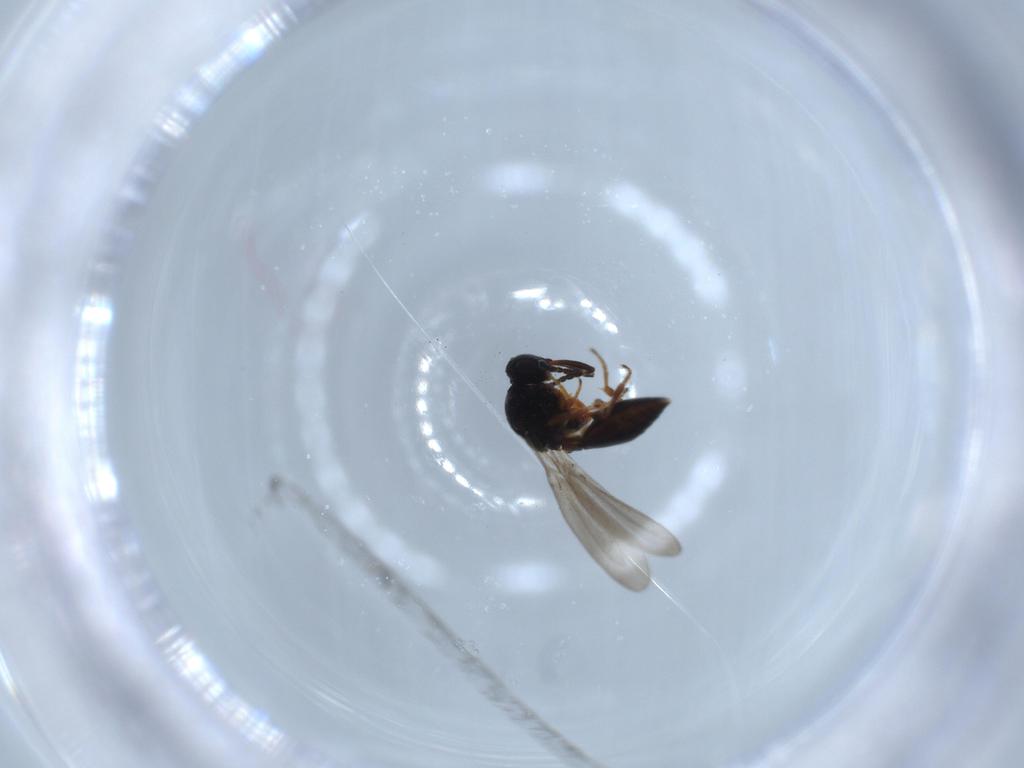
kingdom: Animalia
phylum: Arthropoda
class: Insecta
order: Hymenoptera
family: Platygastridae
